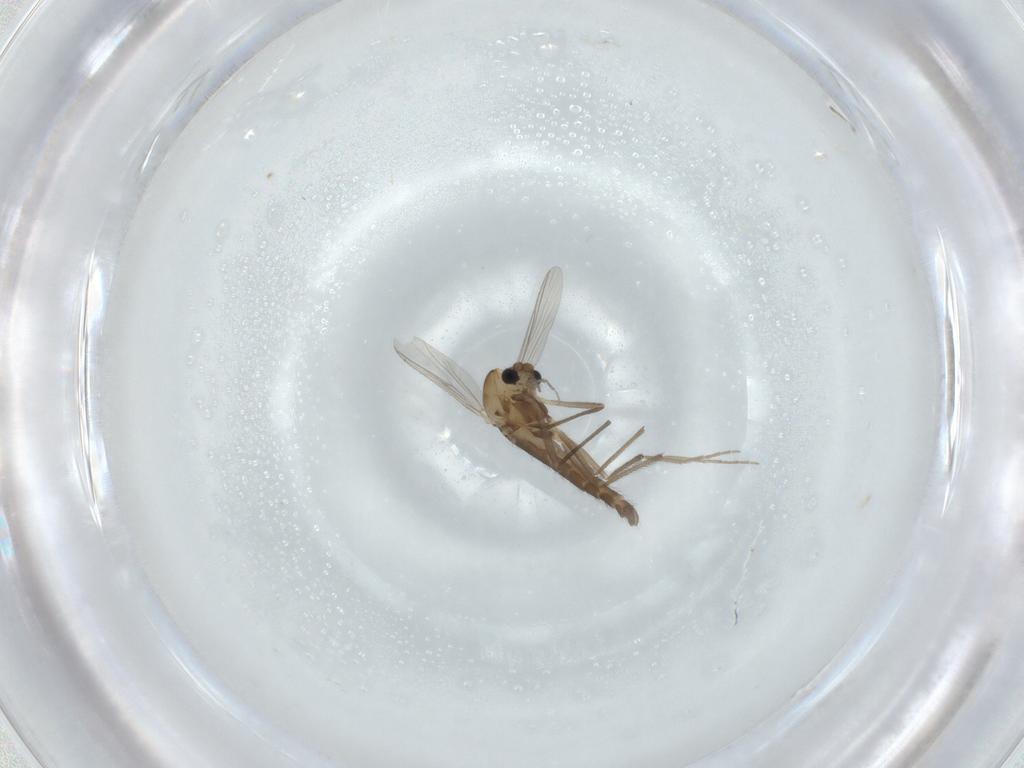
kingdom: Animalia
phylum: Arthropoda
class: Insecta
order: Diptera
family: Chironomidae
